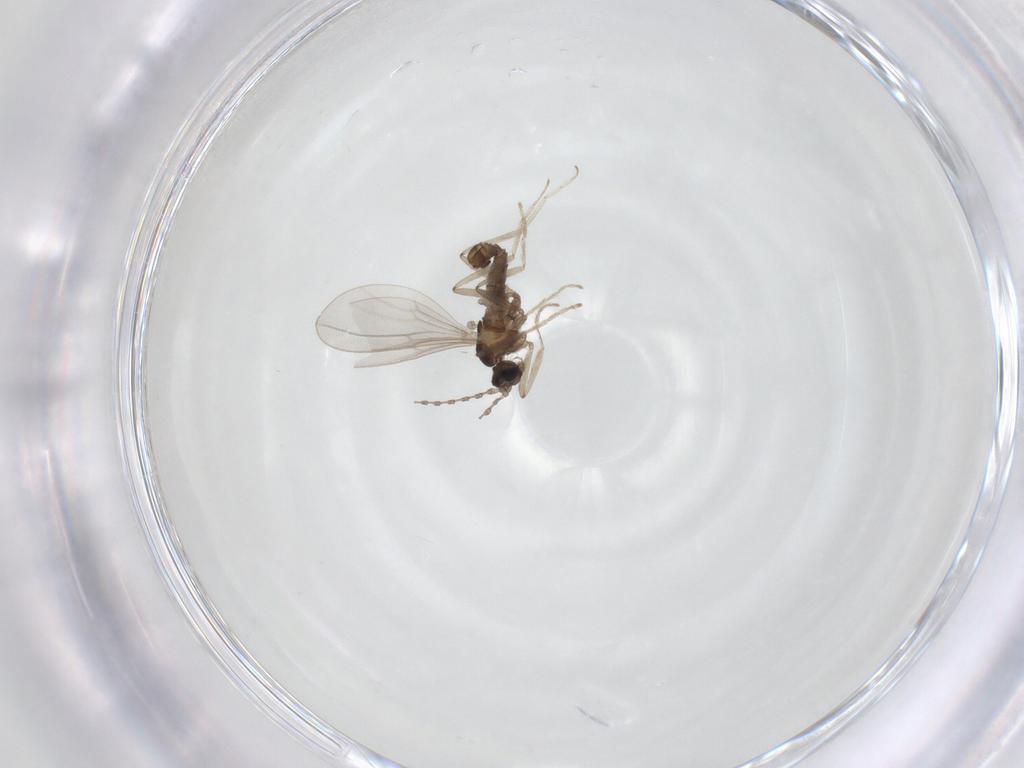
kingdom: Animalia
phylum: Arthropoda
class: Insecta
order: Diptera
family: Cecidomyiidae
